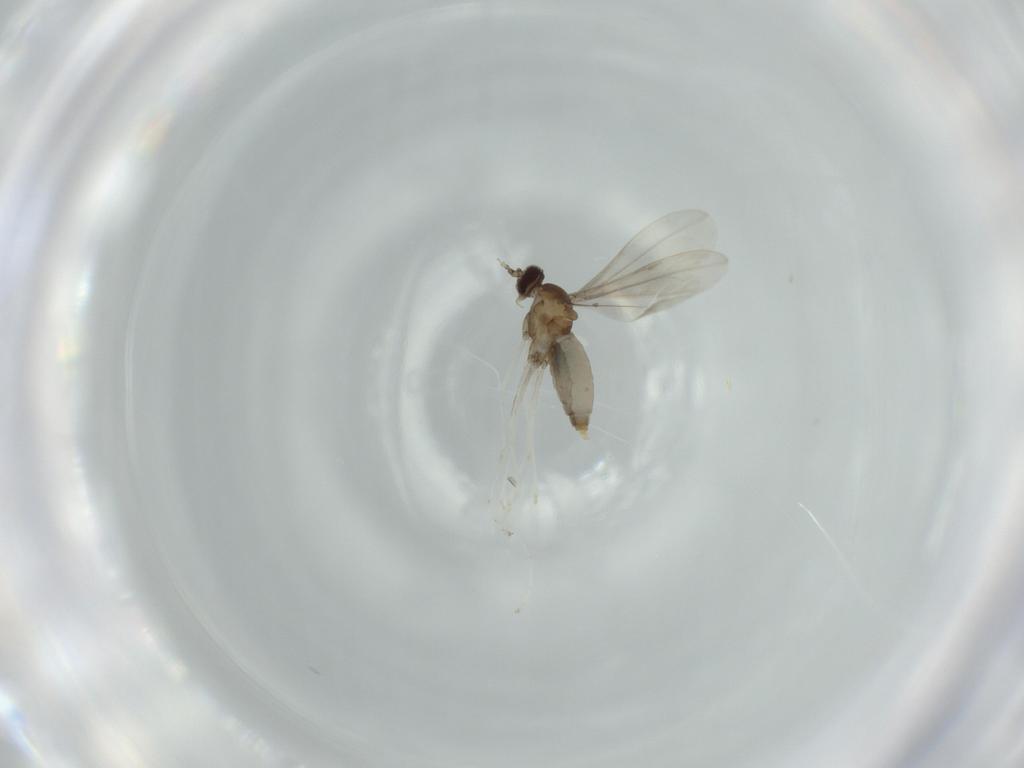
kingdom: Animalia
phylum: Arthropoda
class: Insecta
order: Diptera
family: Cecidomyiidae
